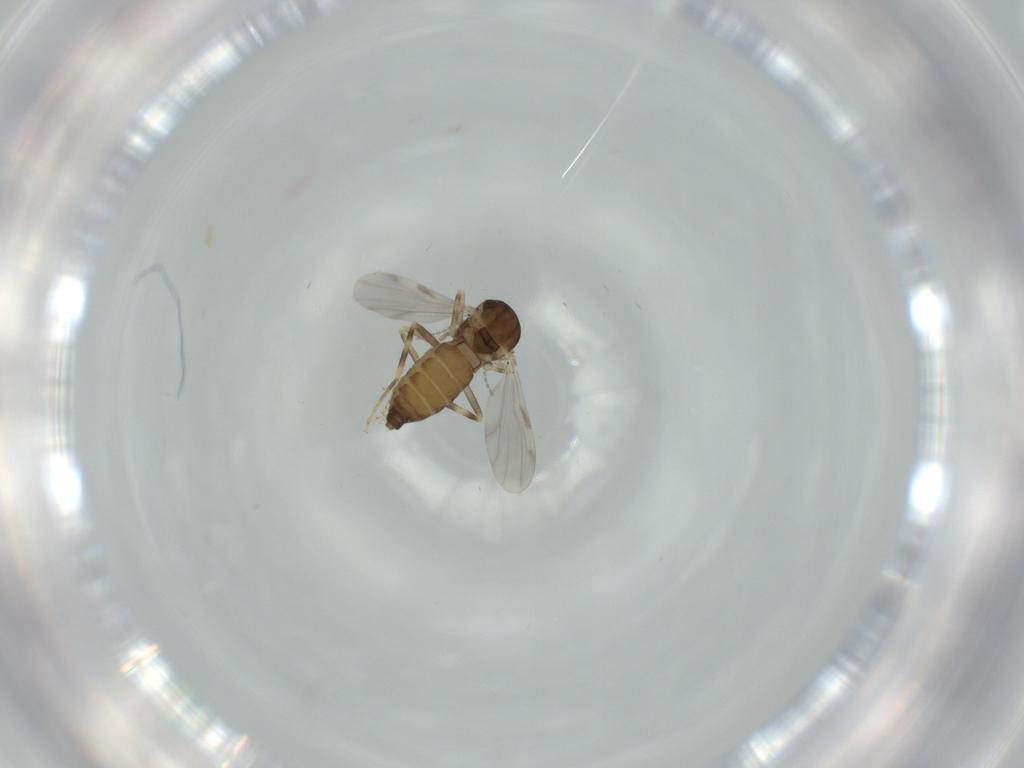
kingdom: Animalia
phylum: Arthropoda
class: Insecta
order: Diptera
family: Ceratopogonidae
